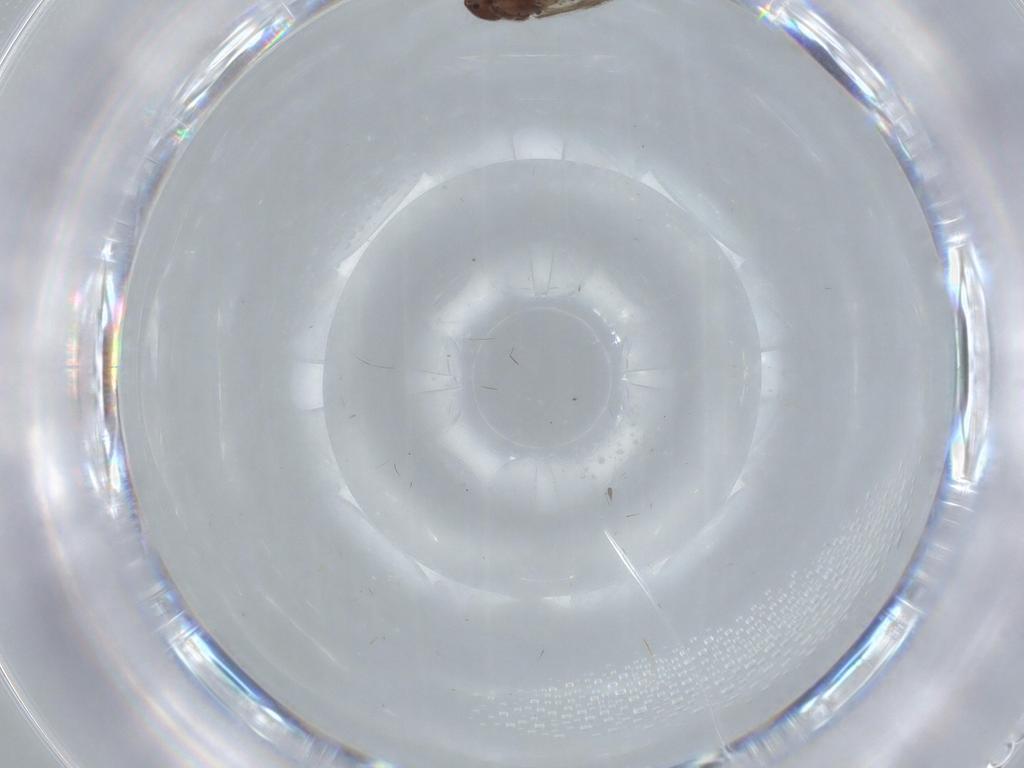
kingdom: Animalia
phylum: Arthropoda
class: Insecta
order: Psocodea
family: Archipsocidae
